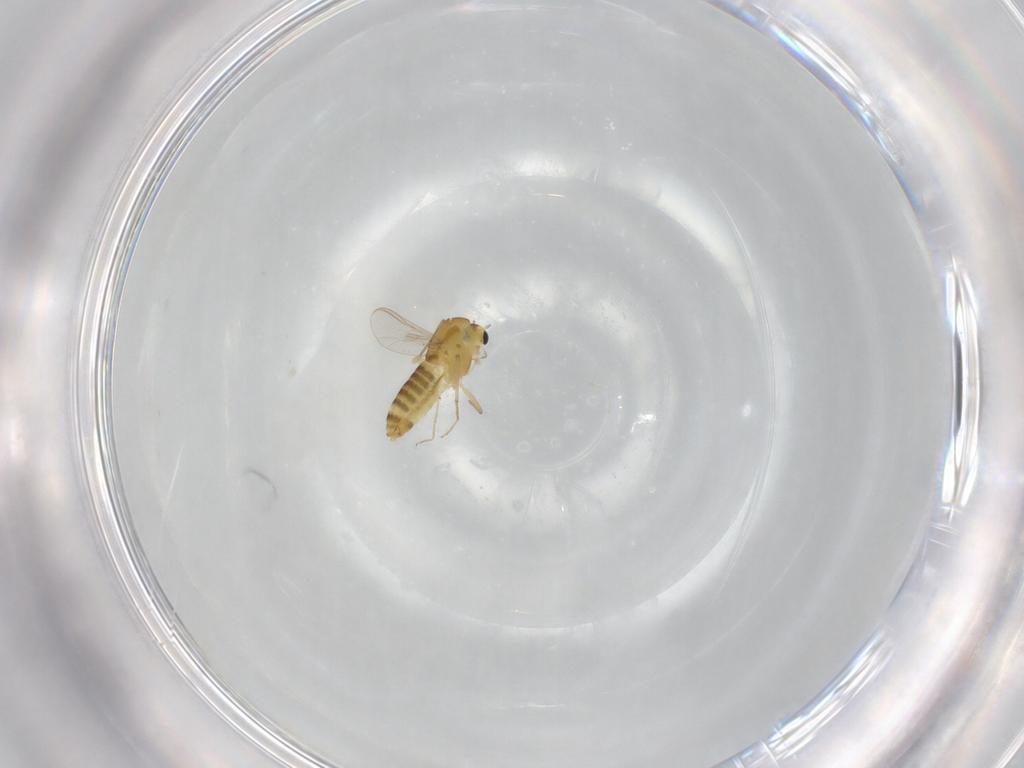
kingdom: Animalia
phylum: Arthropoda
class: Insecta
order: Diptera
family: Chironomidae
